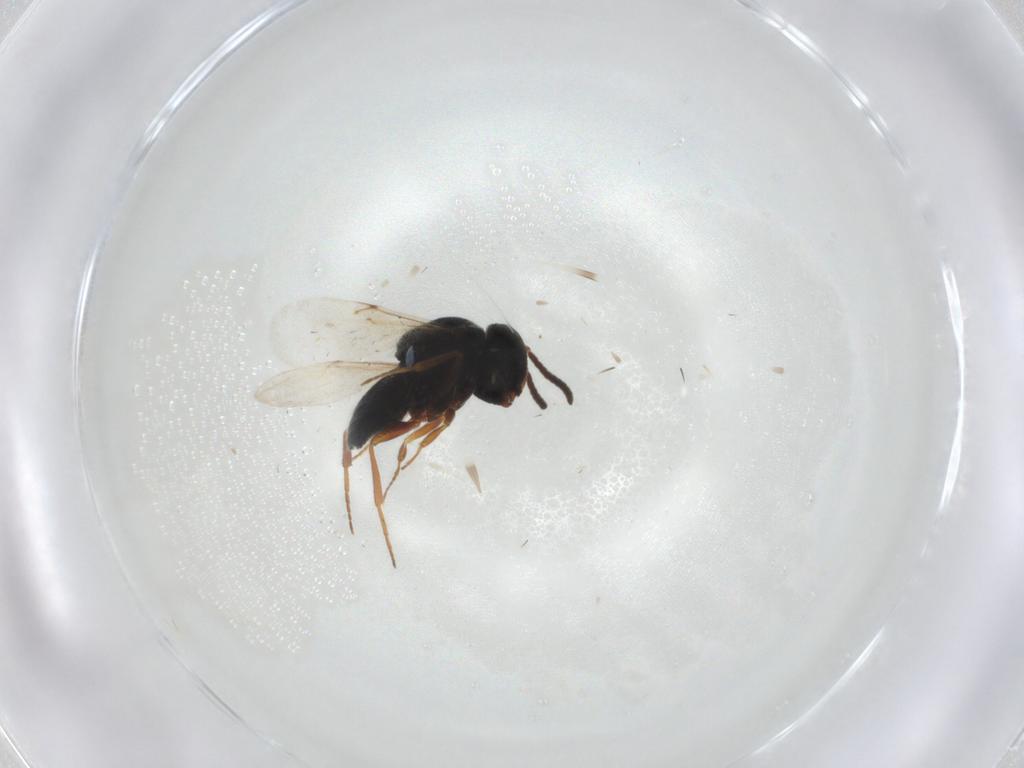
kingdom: Animalia
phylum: Arthropoda
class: Insecta
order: Hymenoptera
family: Scelionidae
